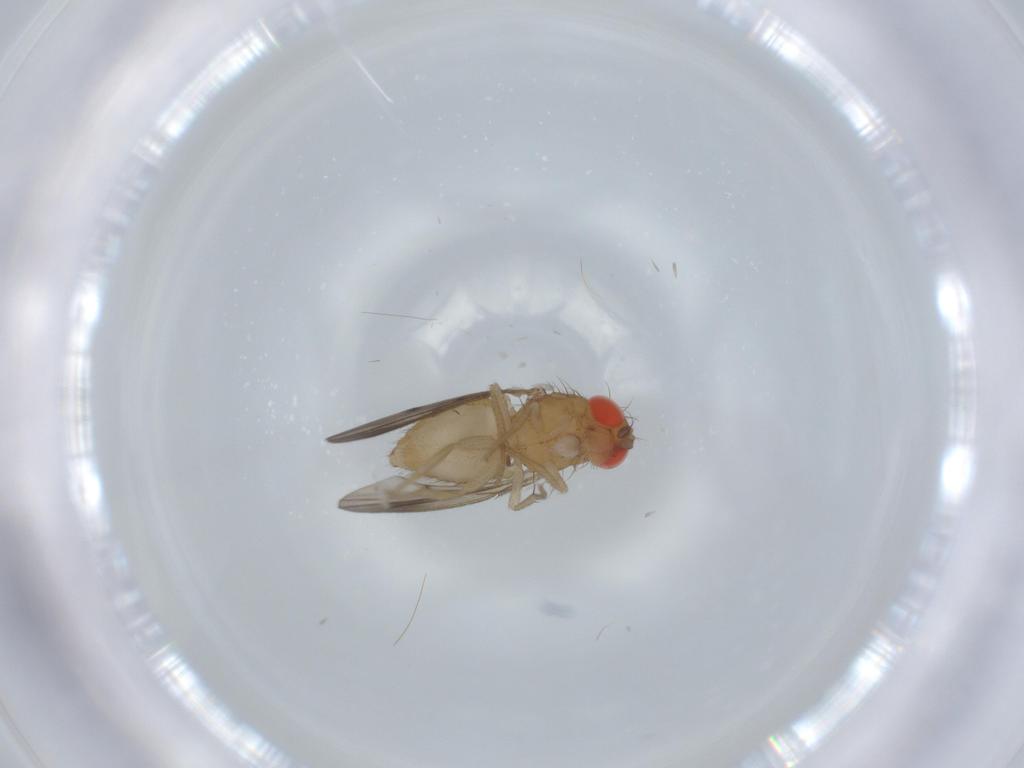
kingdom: Animalia
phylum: Arthropoda
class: Insecta
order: Diptera
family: Drosophilidae
